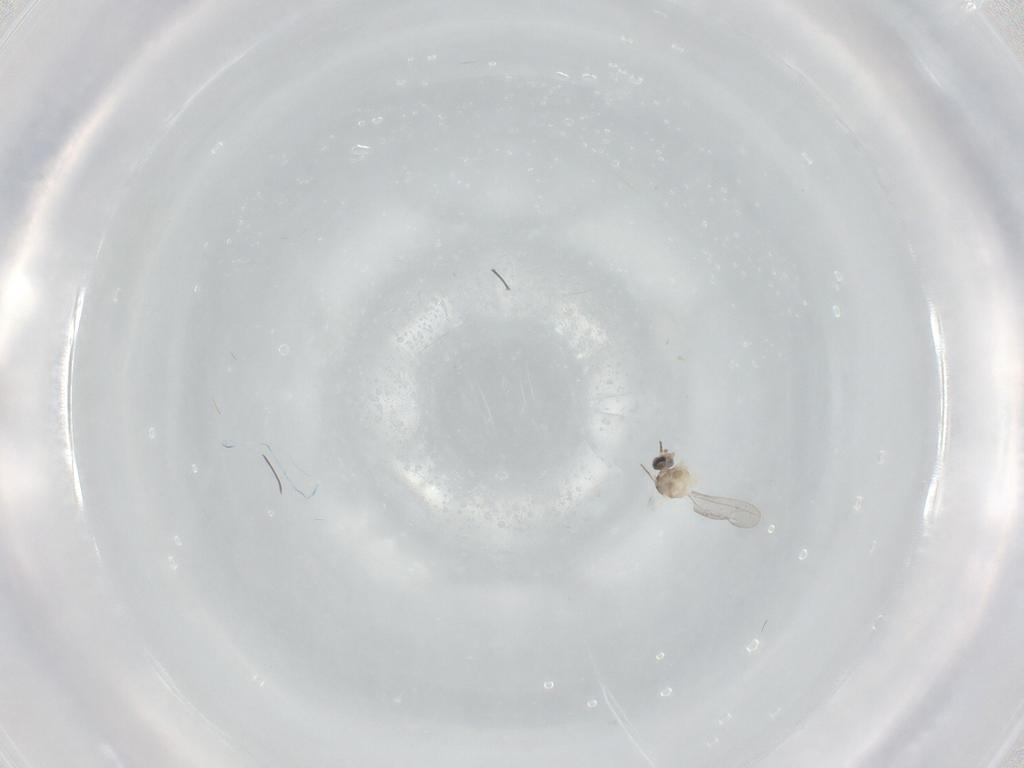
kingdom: Animalia
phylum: Arthropoda
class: Insecta
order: Diptera
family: Cecidomyiidae
